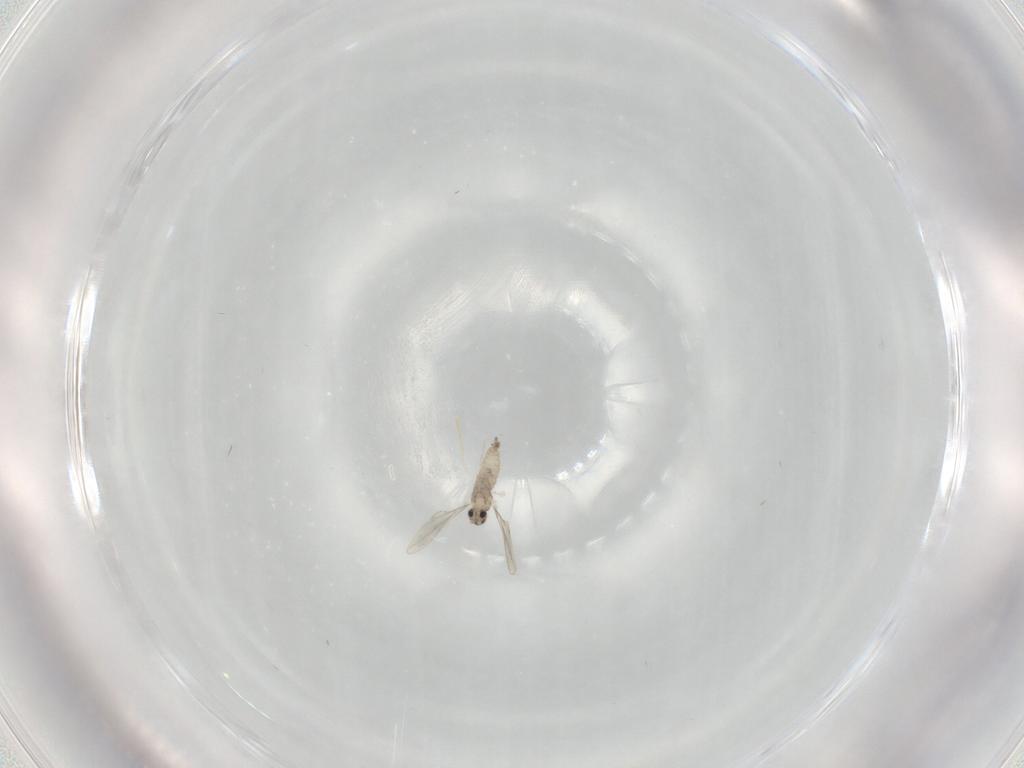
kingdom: Animalia
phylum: Arthropoda
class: Insecta
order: Diptera
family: Cecidomyiidae
